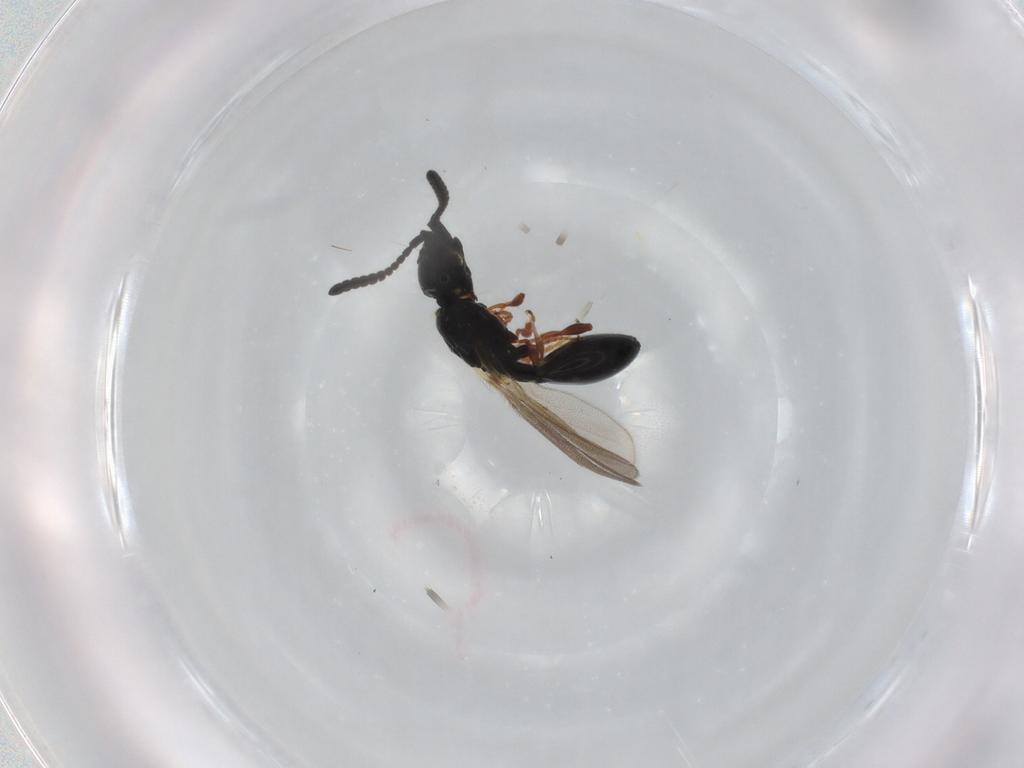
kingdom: Animalia
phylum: Arthropoda
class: Insecta
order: Hymenoptera
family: Diapriidae
